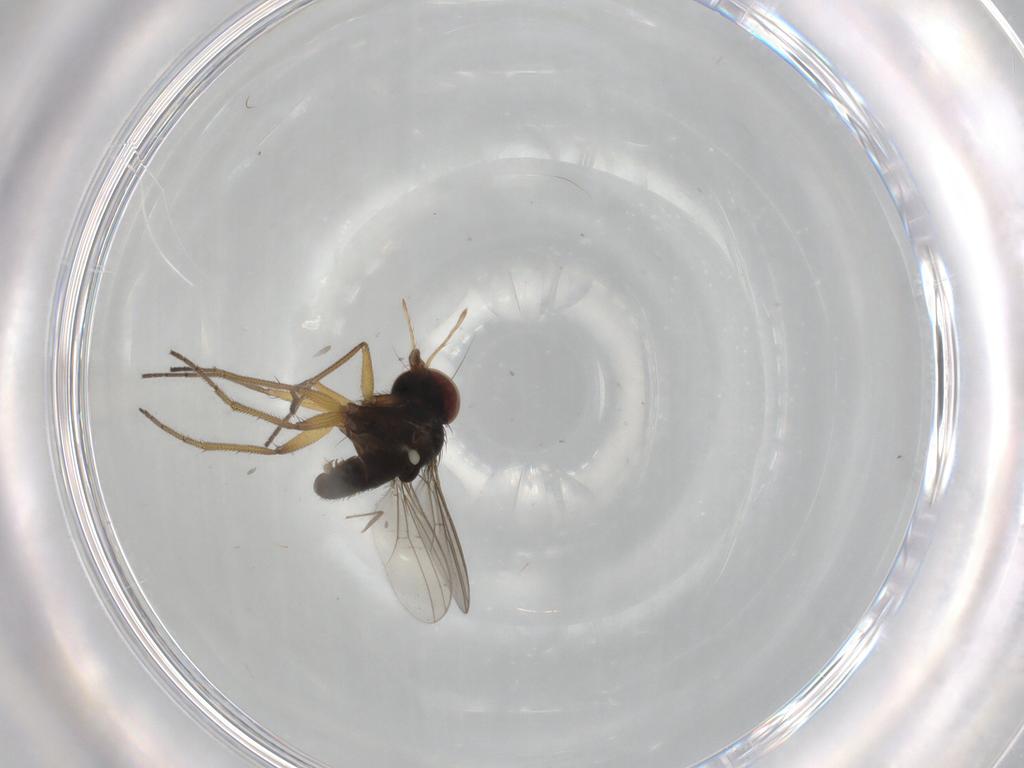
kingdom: Animalia
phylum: Arthropoda
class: Insecta
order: Diptera
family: Dolichopodidae
